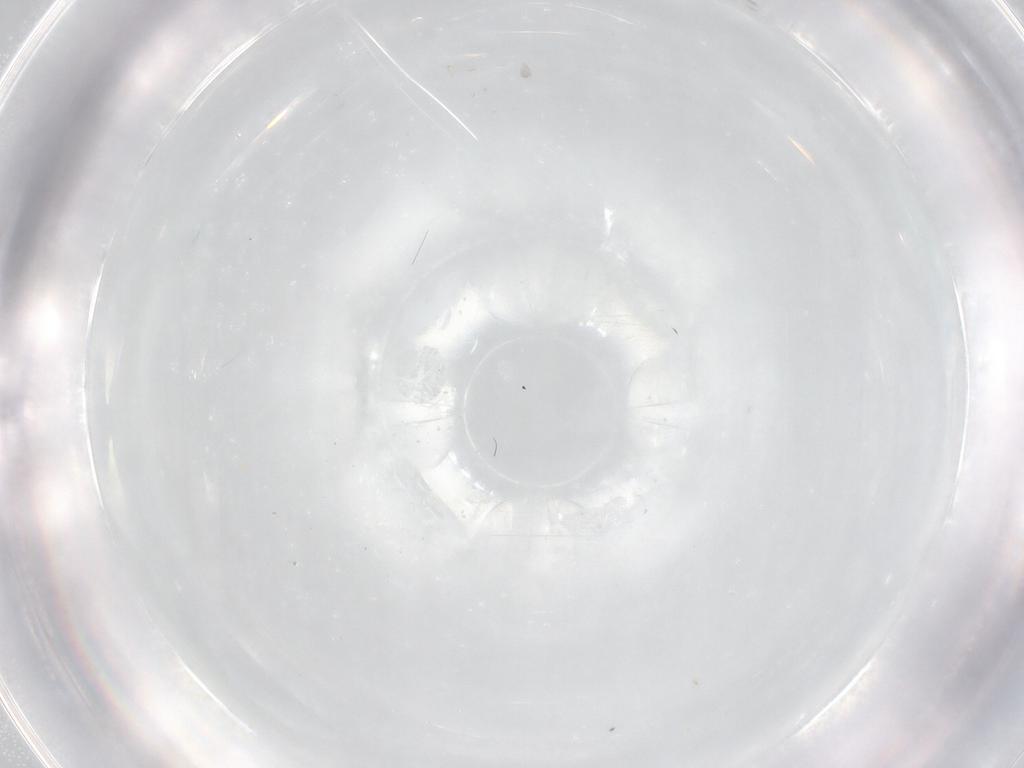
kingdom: Animalia
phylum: Arthropoda
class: Insecta
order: Diptera
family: Cecidomyiidae
